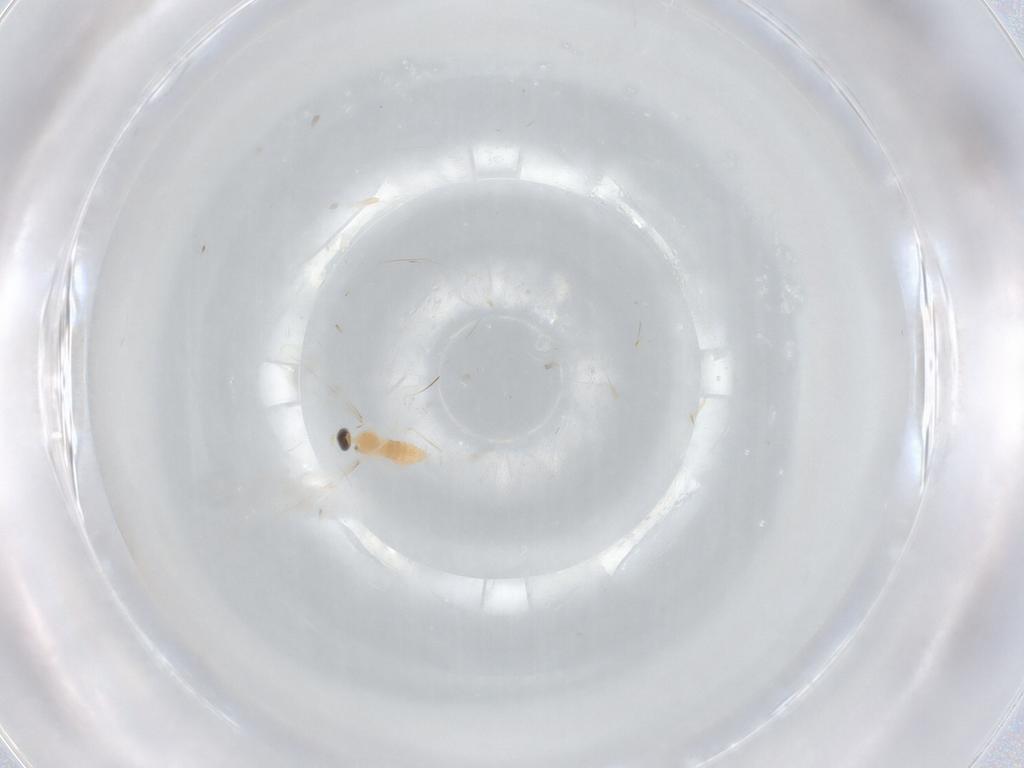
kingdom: Animalia
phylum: Arthropoda
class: Insecta
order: Diptera
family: Cecidomyiidae
